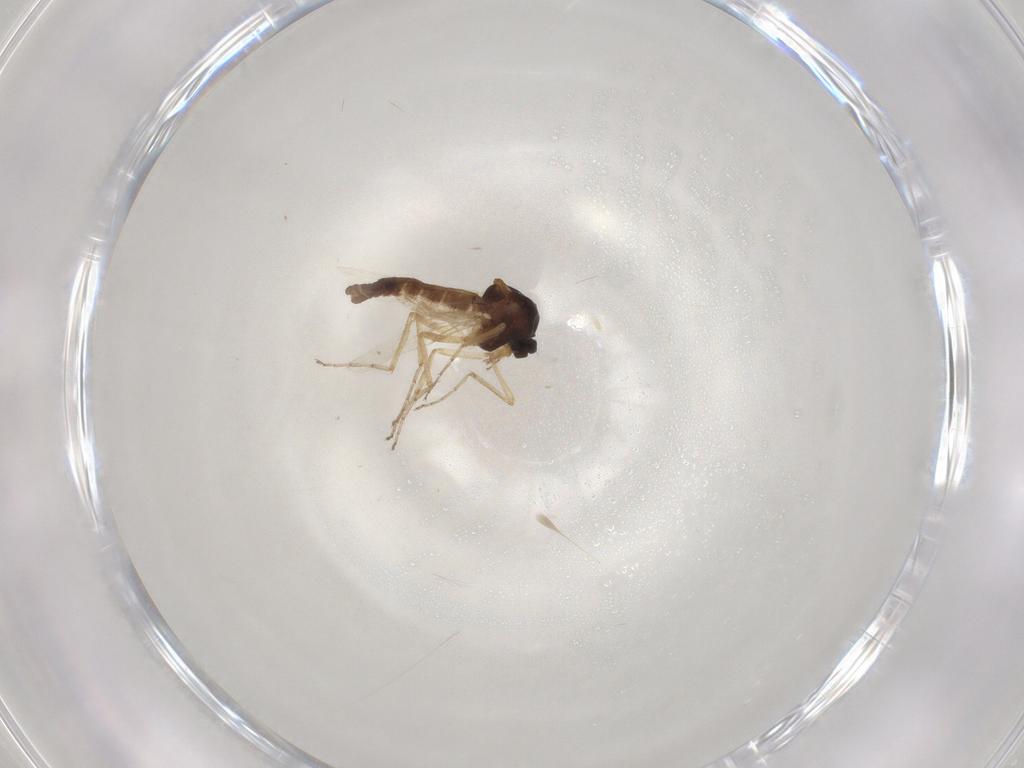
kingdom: Animalia
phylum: Arthropoda
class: Insecta
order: Diptera
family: Ceratopogonidae
